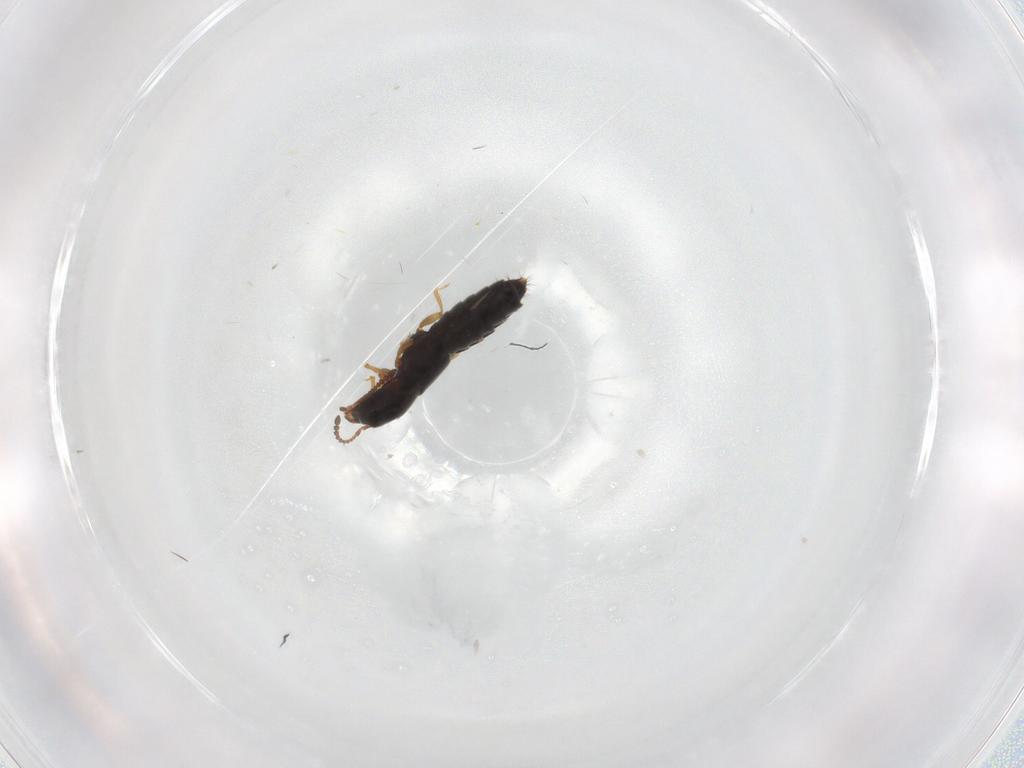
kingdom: Animalia
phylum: Arthropoda
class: Insecta
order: Coleoptera
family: Staphylinidae
